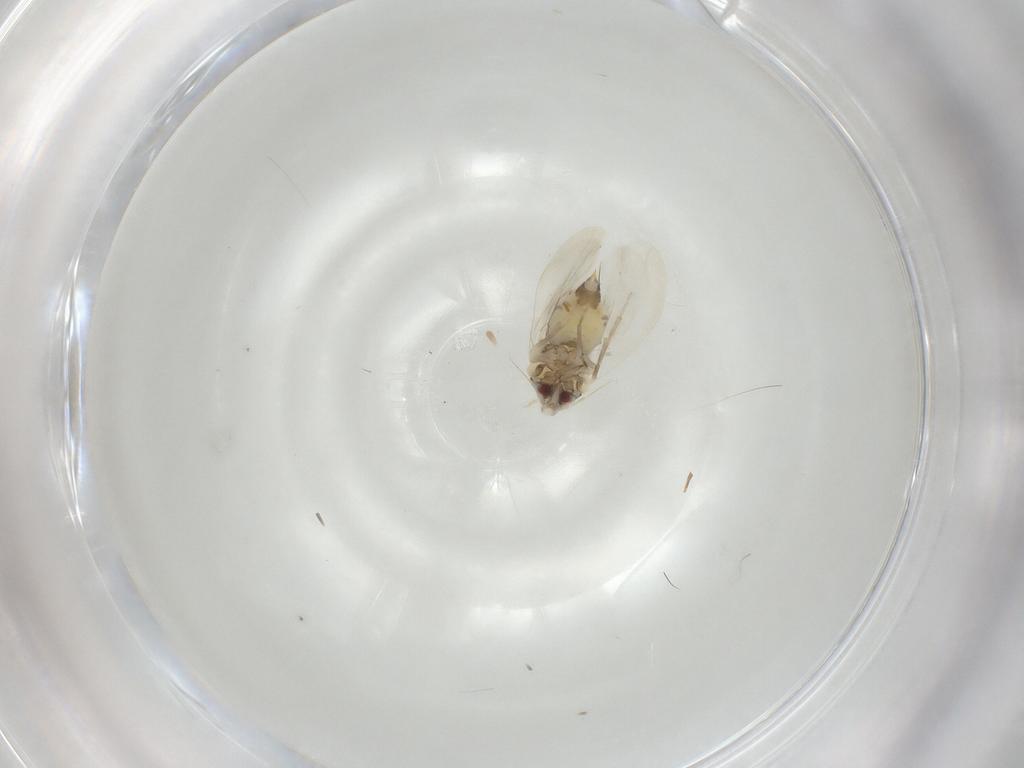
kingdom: Animalia
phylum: Arthropoda
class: Insecta
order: Hemiptera
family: Aleyrodidae
